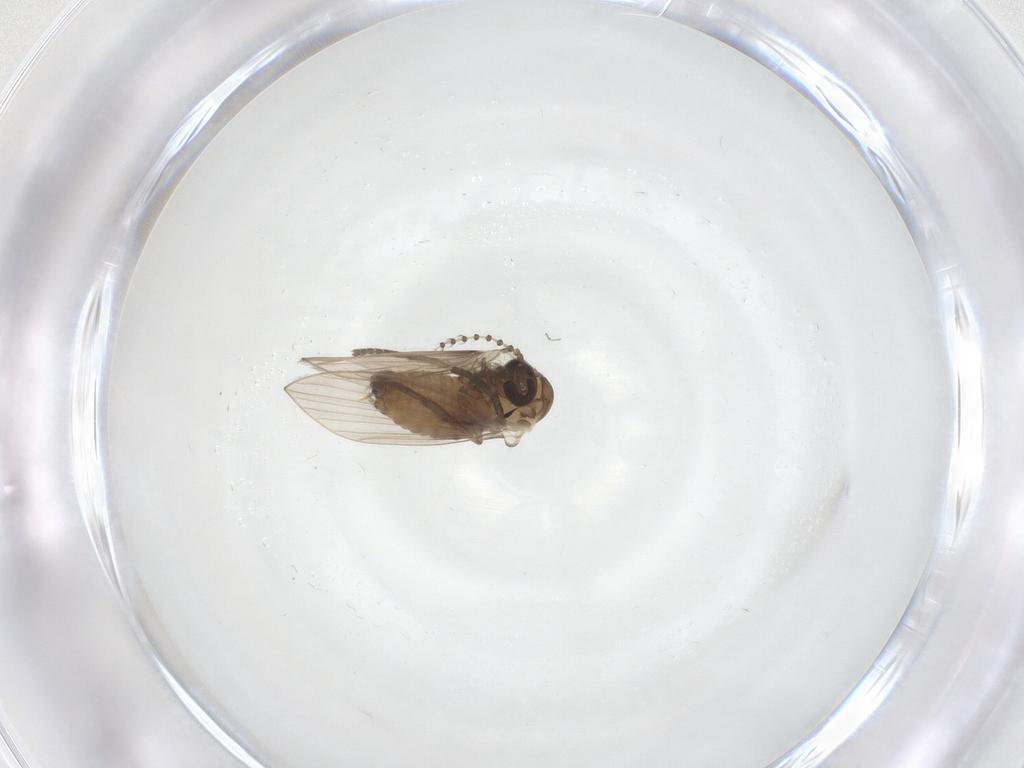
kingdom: Animalia
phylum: Arthropoda
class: Insecta
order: Diptera
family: Psychodidae
